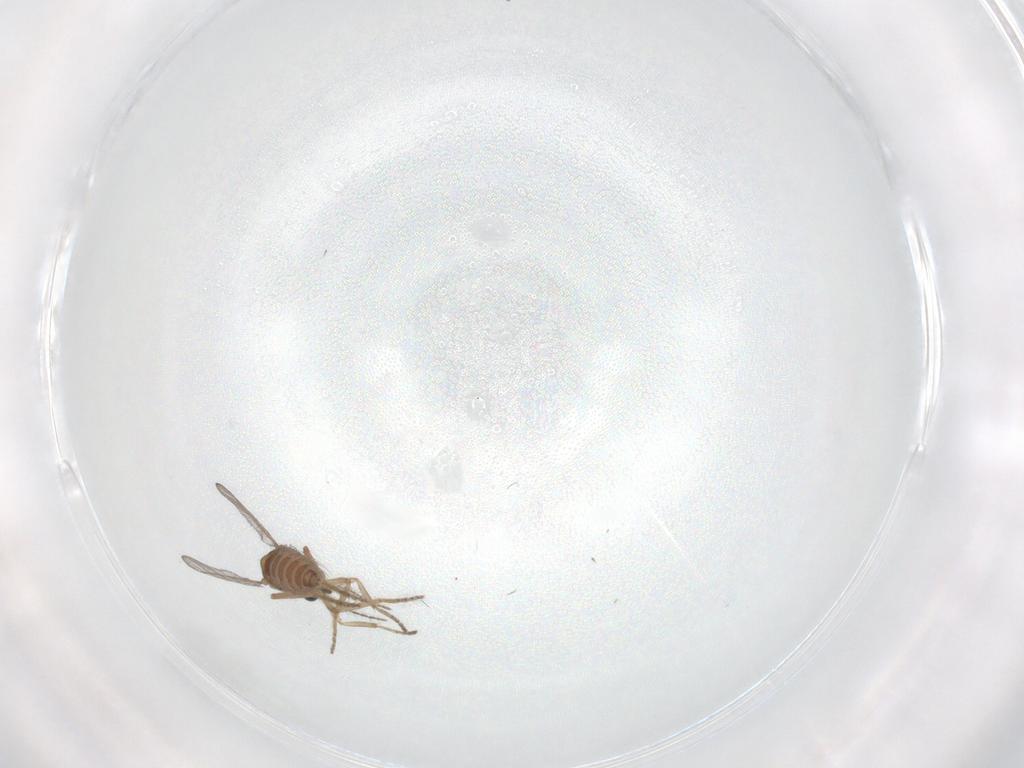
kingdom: Animalia
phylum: Arthropoda
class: Insecta
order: Diptera
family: Ceratopogonidae
